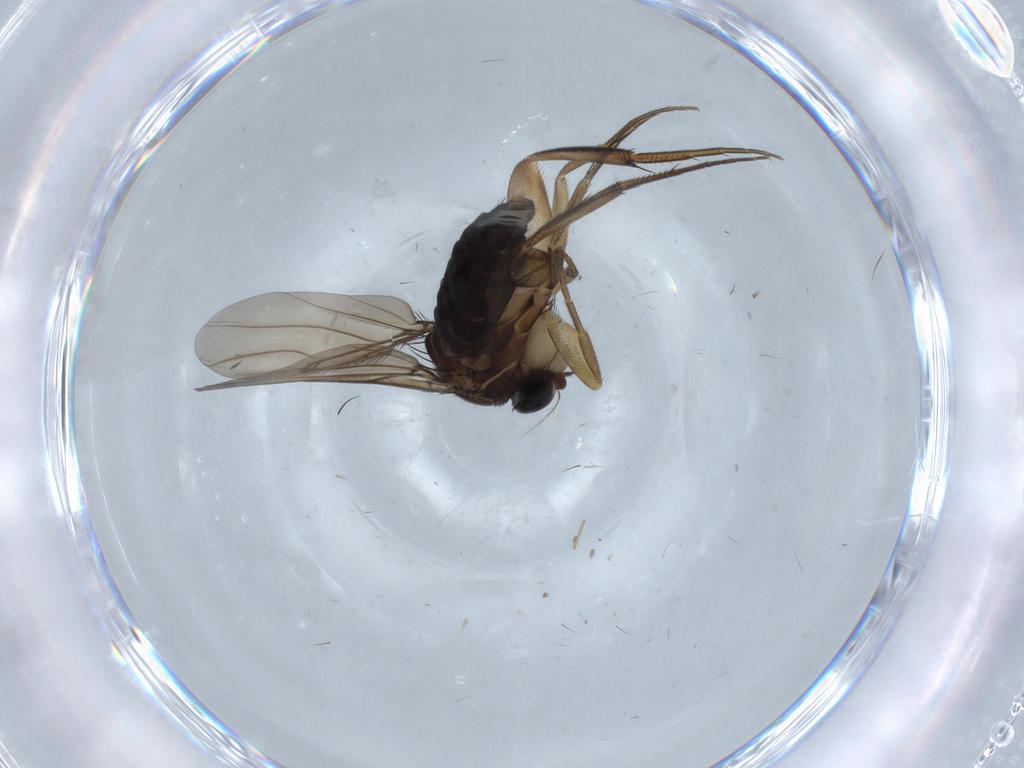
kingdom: Animalia
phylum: Arthropoda
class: Insecta
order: Diptera
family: Phoridae
